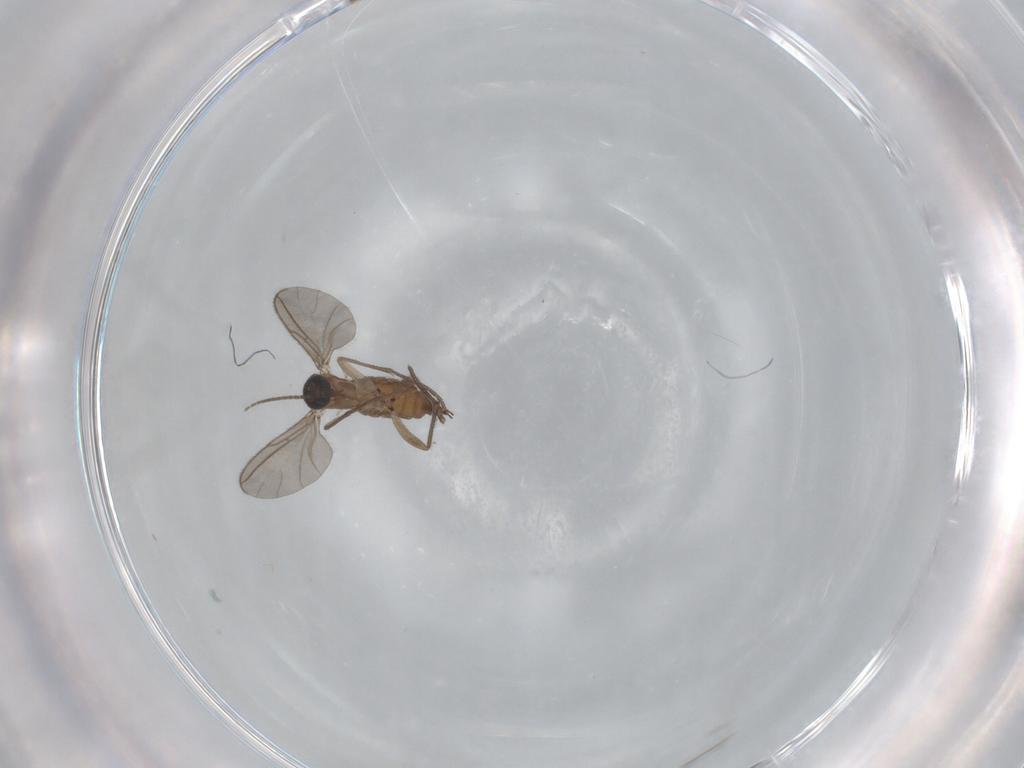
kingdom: Animalia
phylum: Arthropoda
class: Insecta
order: Diptera
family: Sciaridae
